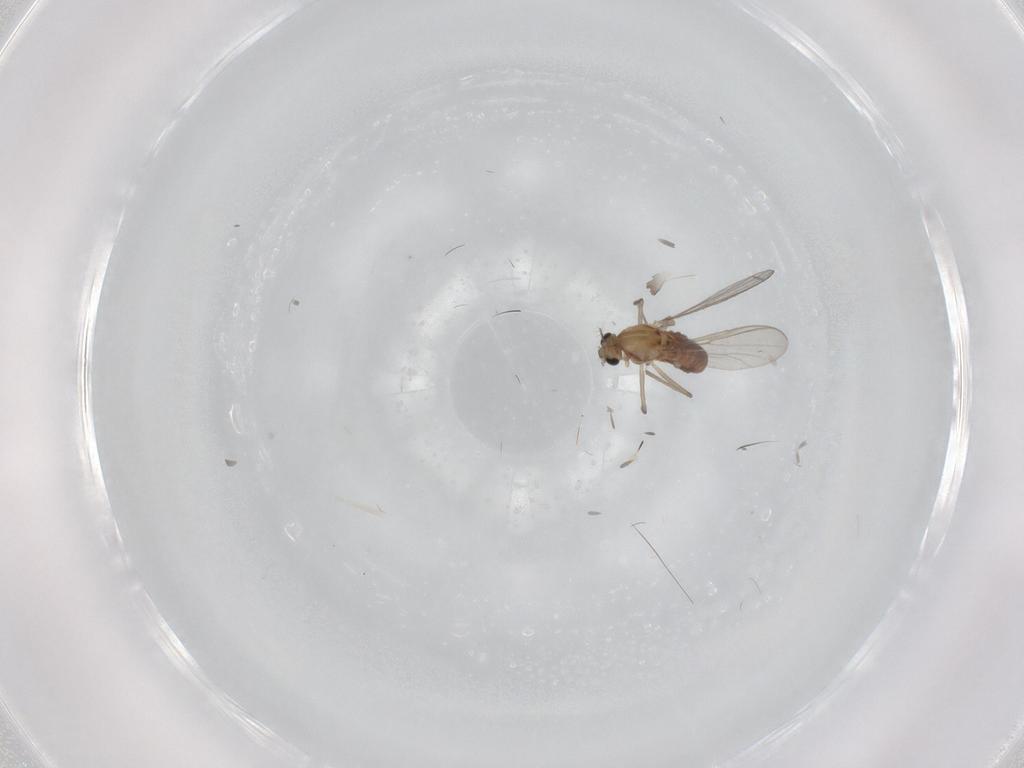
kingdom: Animalia
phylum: Arthropoda
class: Insecta
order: Diptera
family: Chironomidae
